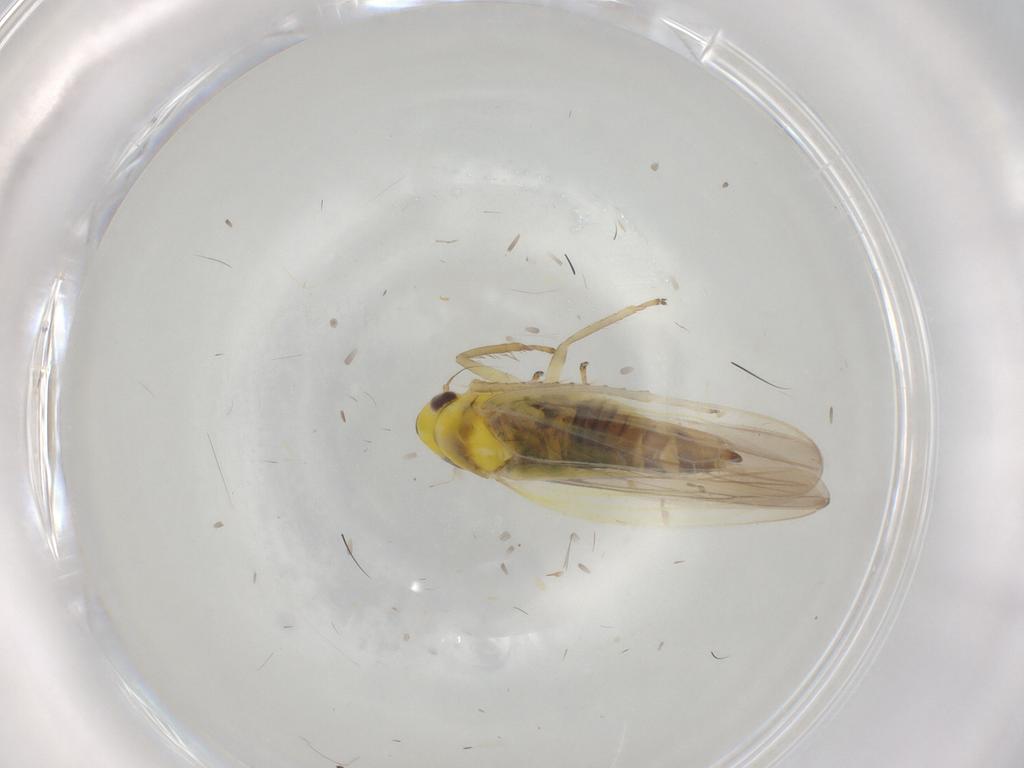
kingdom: Animalia
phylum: Arthropoda
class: Insecta
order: Hemiptera
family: Cicadellidae
